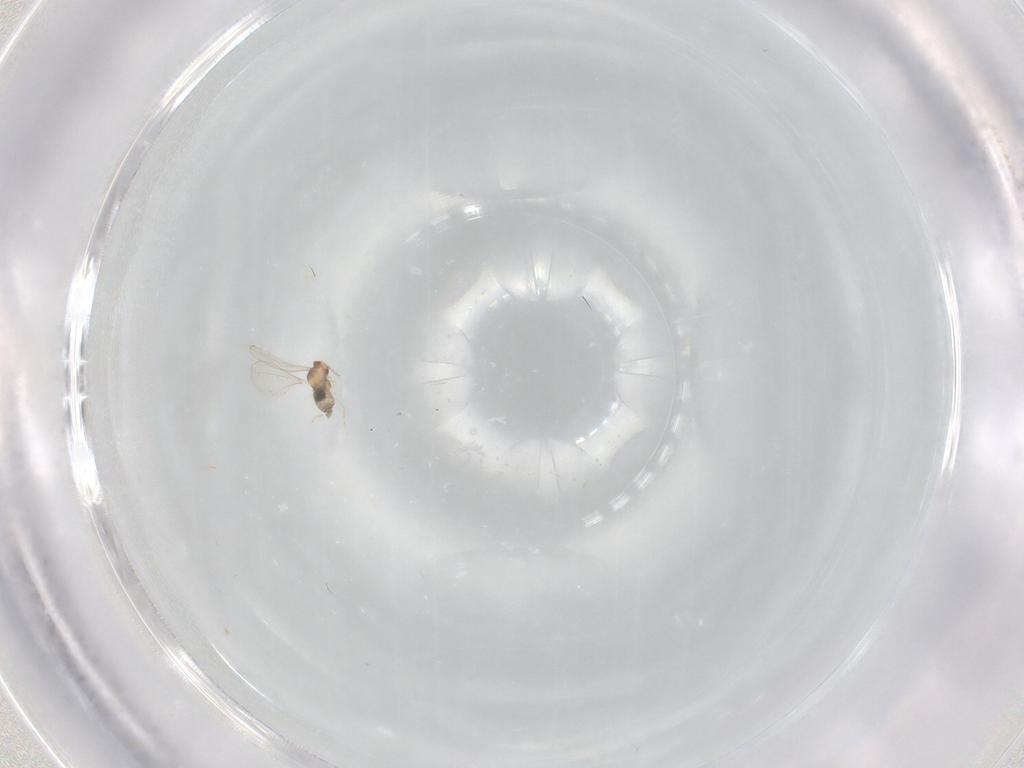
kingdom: Animalia
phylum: Arthropoda
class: Insecta
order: Diptera
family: Cecidomyiidae
